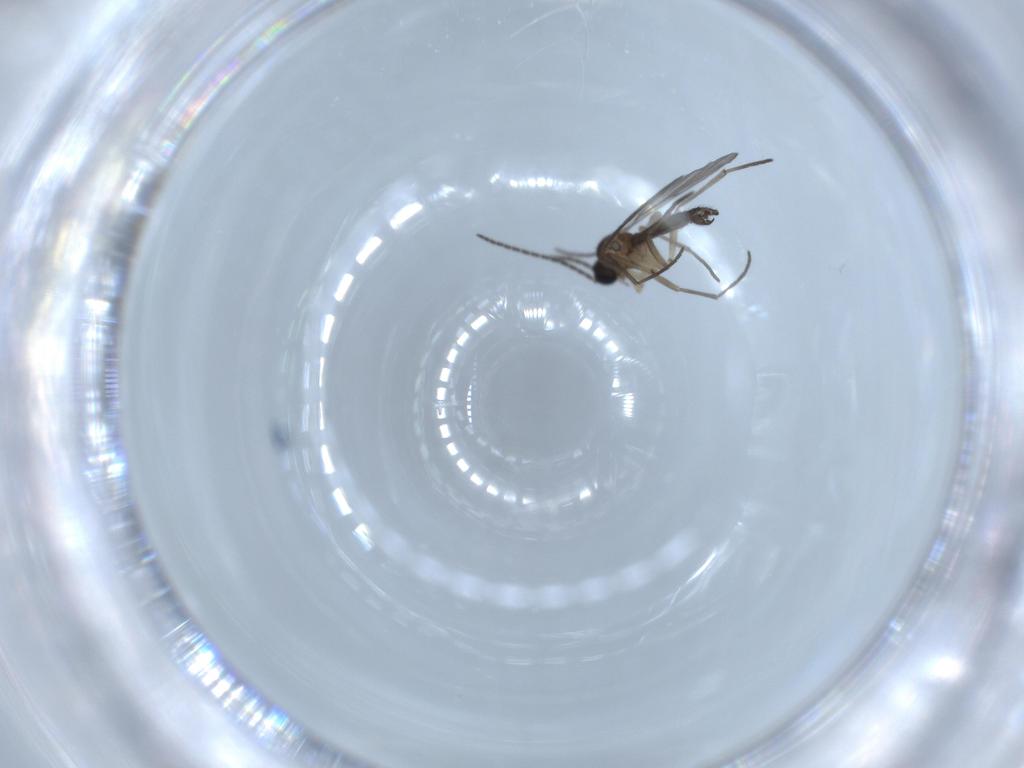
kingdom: Animalia
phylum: Arthropoda
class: Insecta
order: Diptera
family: Sciaridae
